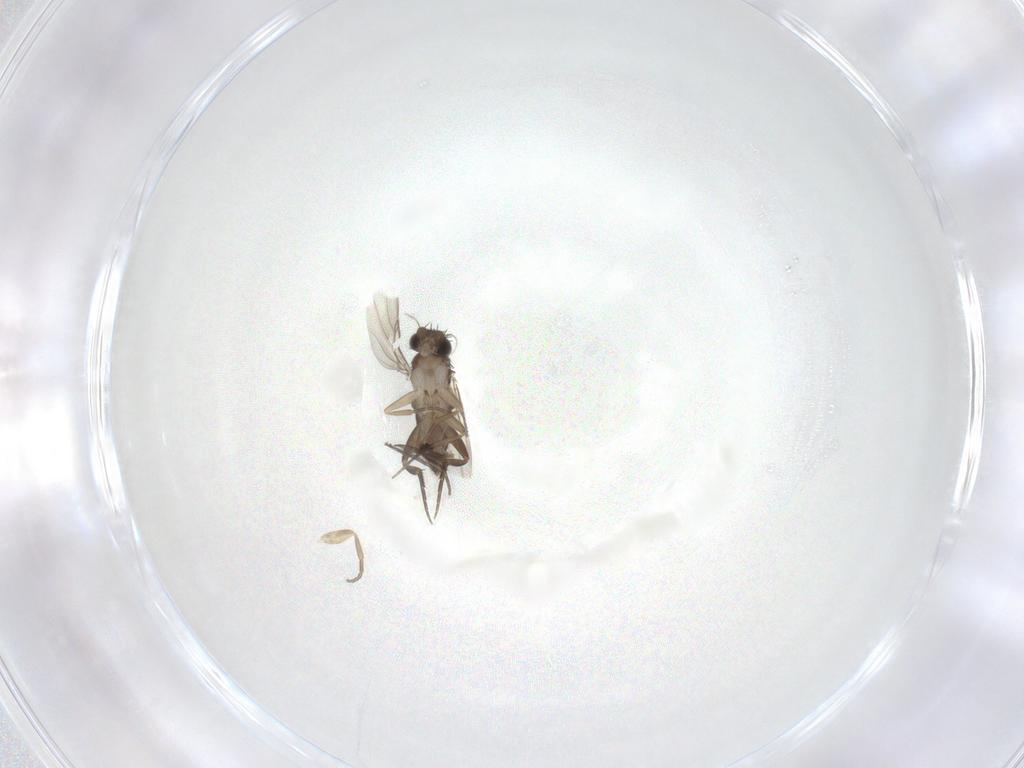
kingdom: Animalia
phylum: Arthropoda
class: Insecta
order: Diptera
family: Phoridae
